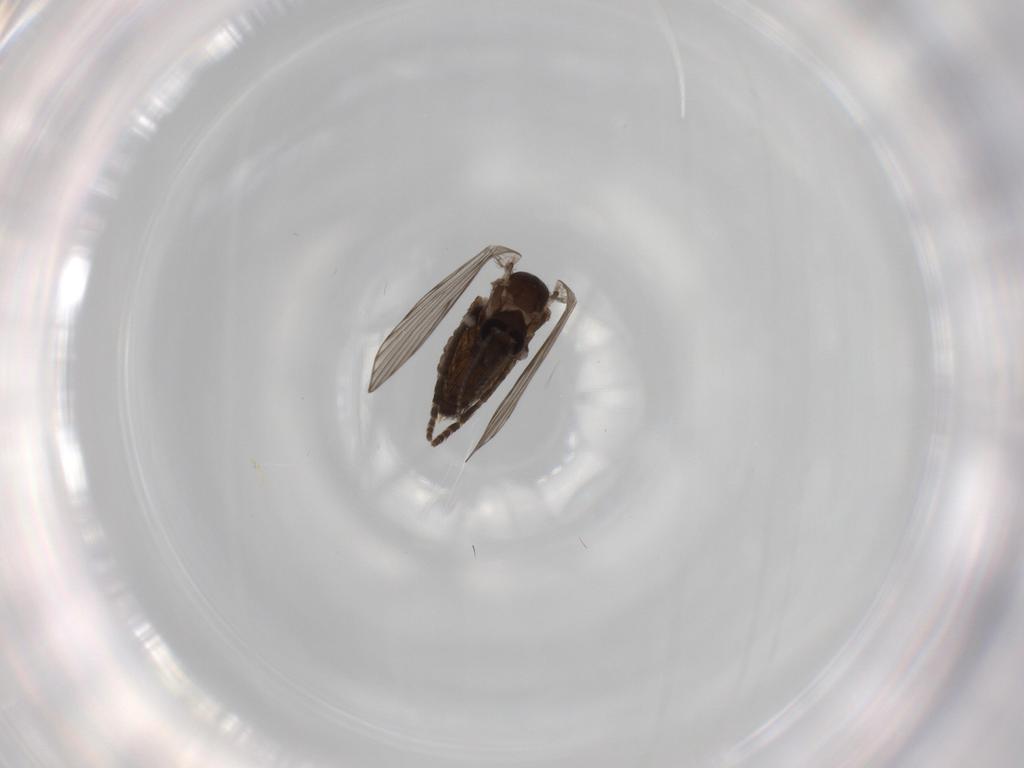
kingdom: Animalia
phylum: Arthropoda
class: Insecta
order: Diptera
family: Psychodidae
